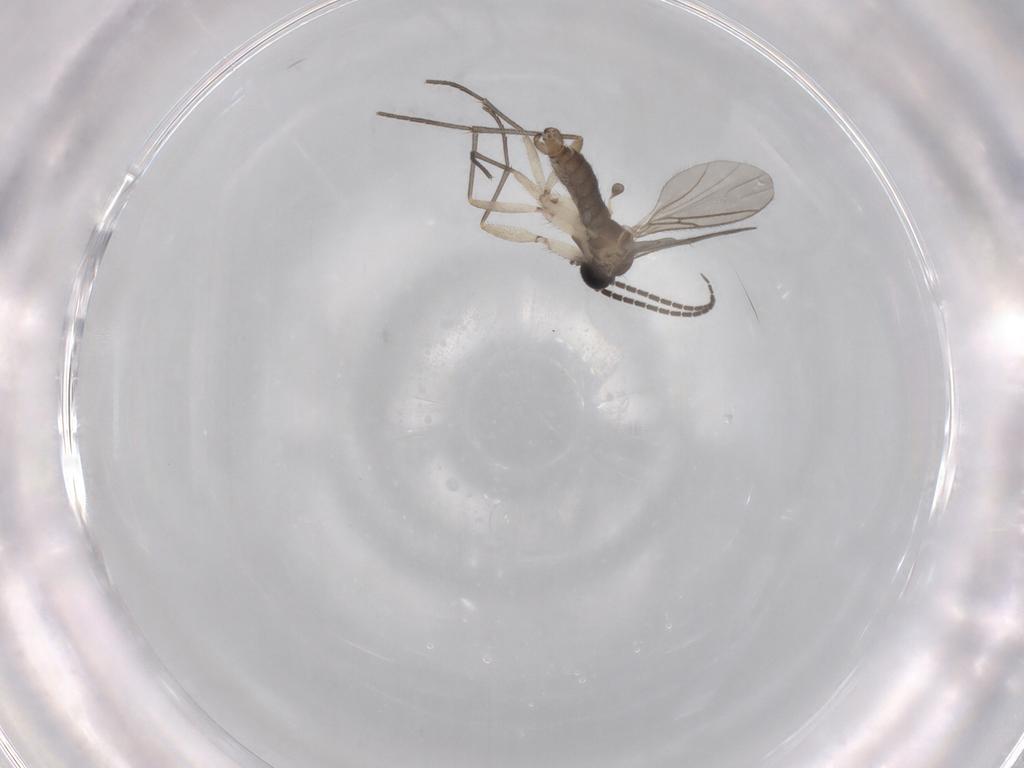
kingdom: Animalia
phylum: Arthropoda
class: Insecta
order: Diptera
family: Sciaridae
